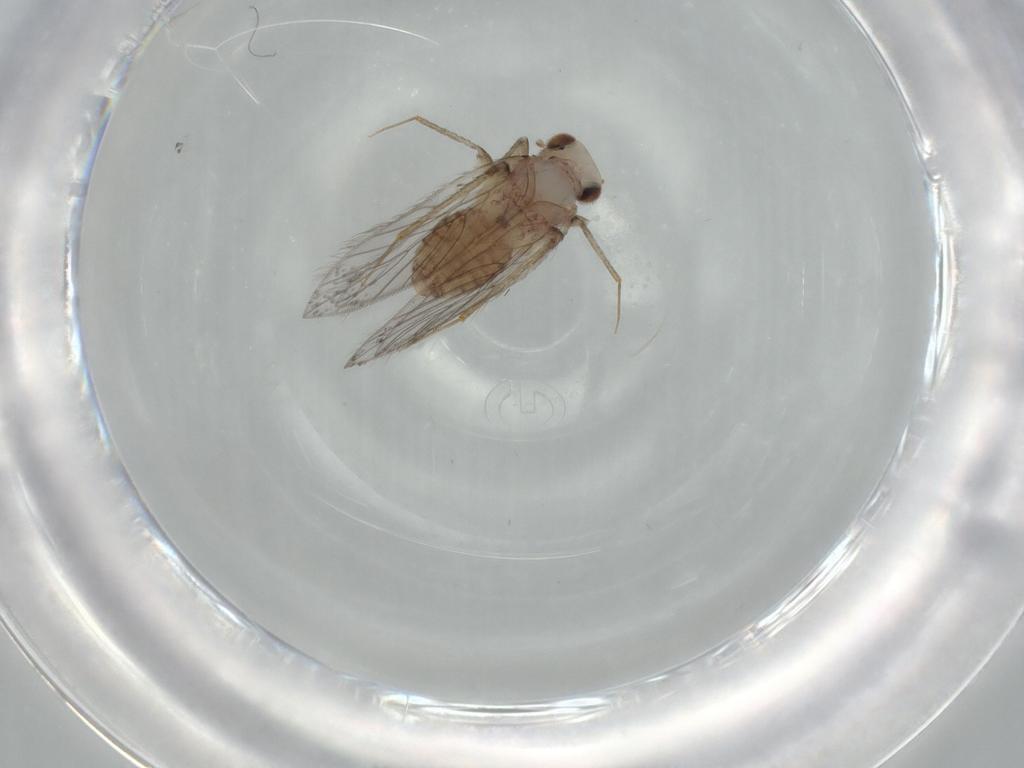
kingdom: Animalia
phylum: Arthropoda
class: Insecta
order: Psocodea
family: Lepidopsocidae
